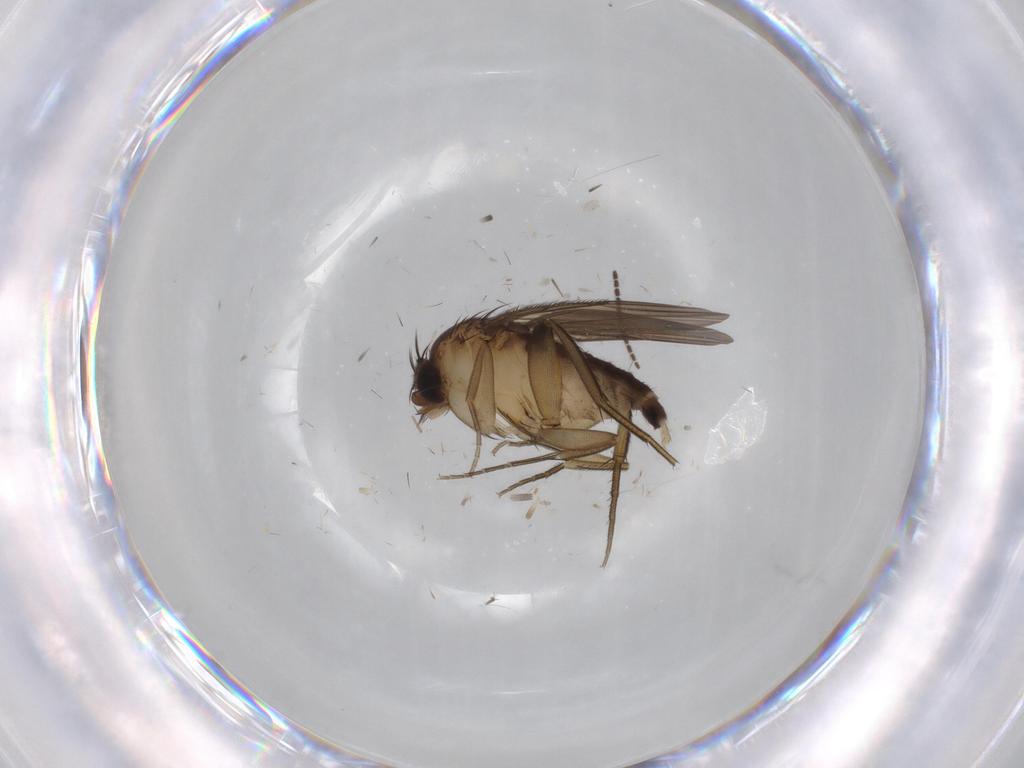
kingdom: Animalia
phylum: Arthropoda
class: Insecta
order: Diptera
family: Phoridae
